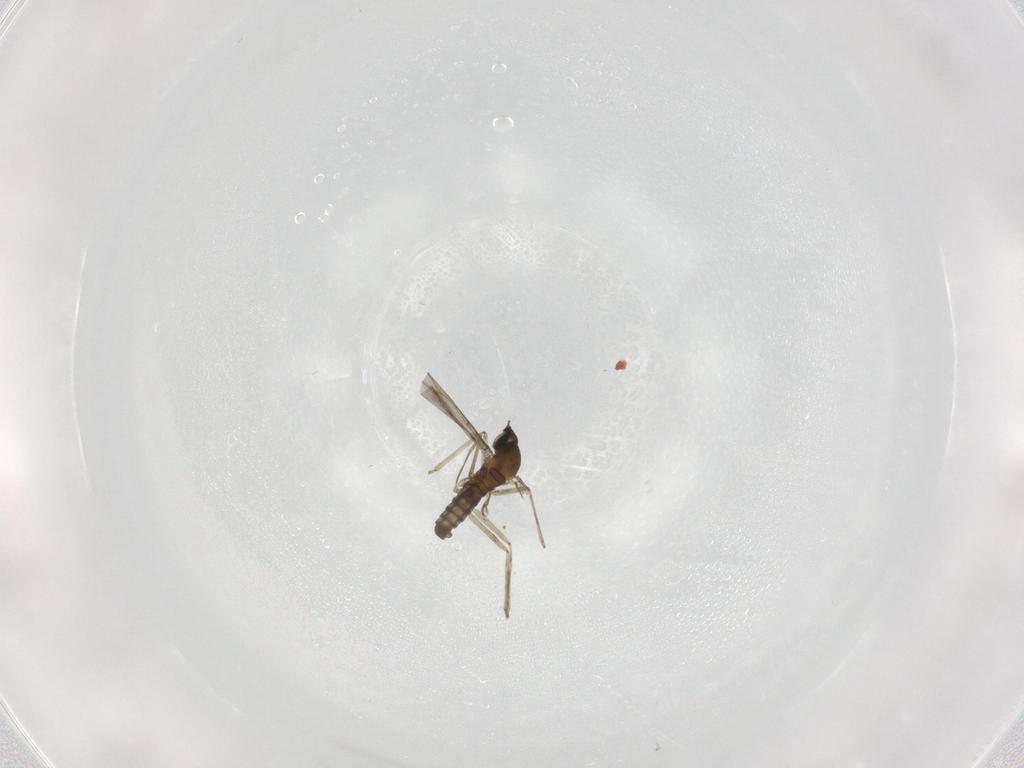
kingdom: Animalia
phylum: Arthropoda
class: Insecta
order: Diptera
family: Cecidomyiidae
